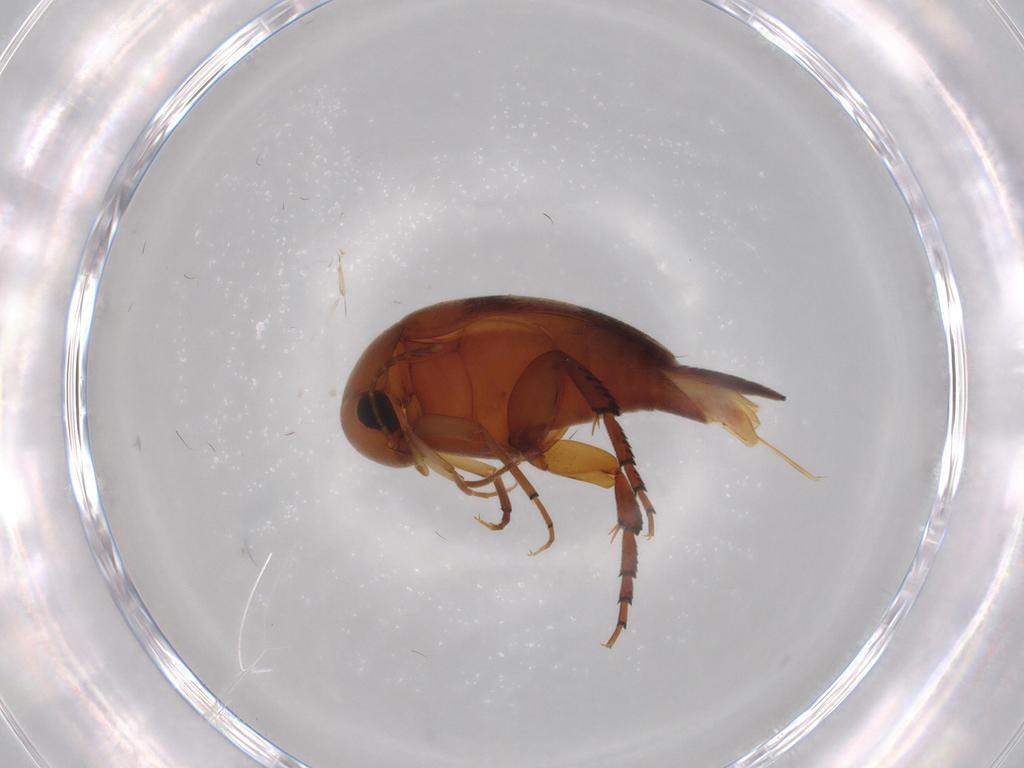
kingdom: Animalia
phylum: Arthropoda
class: Insecta
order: Coleoptera
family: Mordellidae
